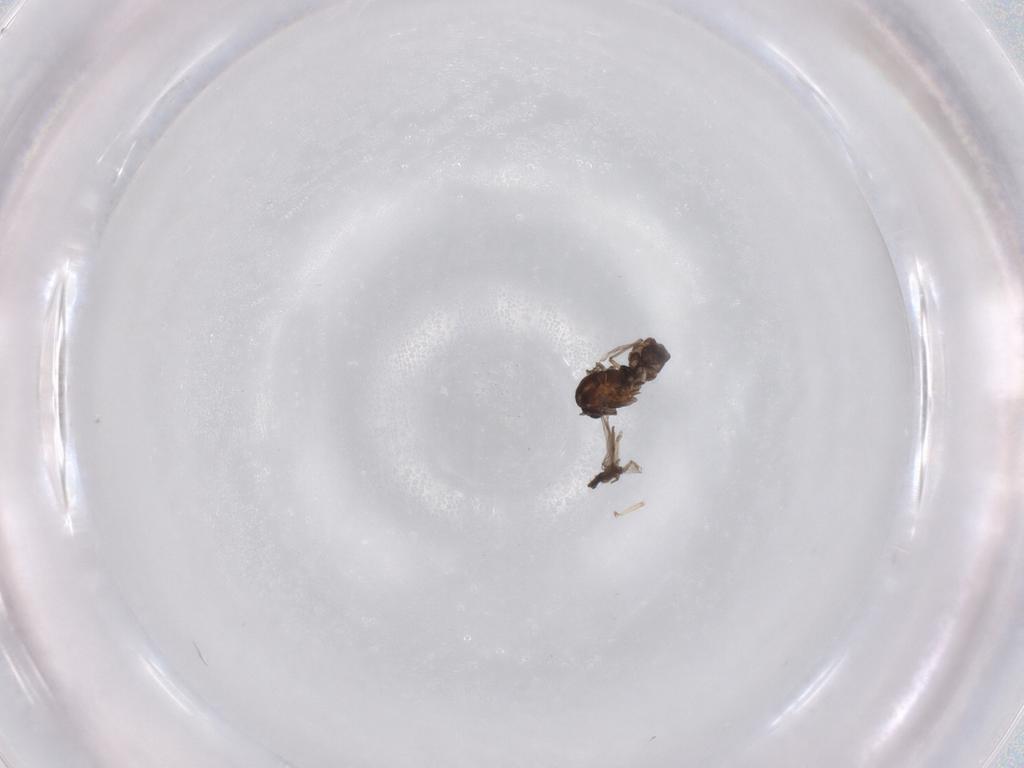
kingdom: Animalia
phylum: Arthropoda
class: Insecta
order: Diptera
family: Chironomidae
